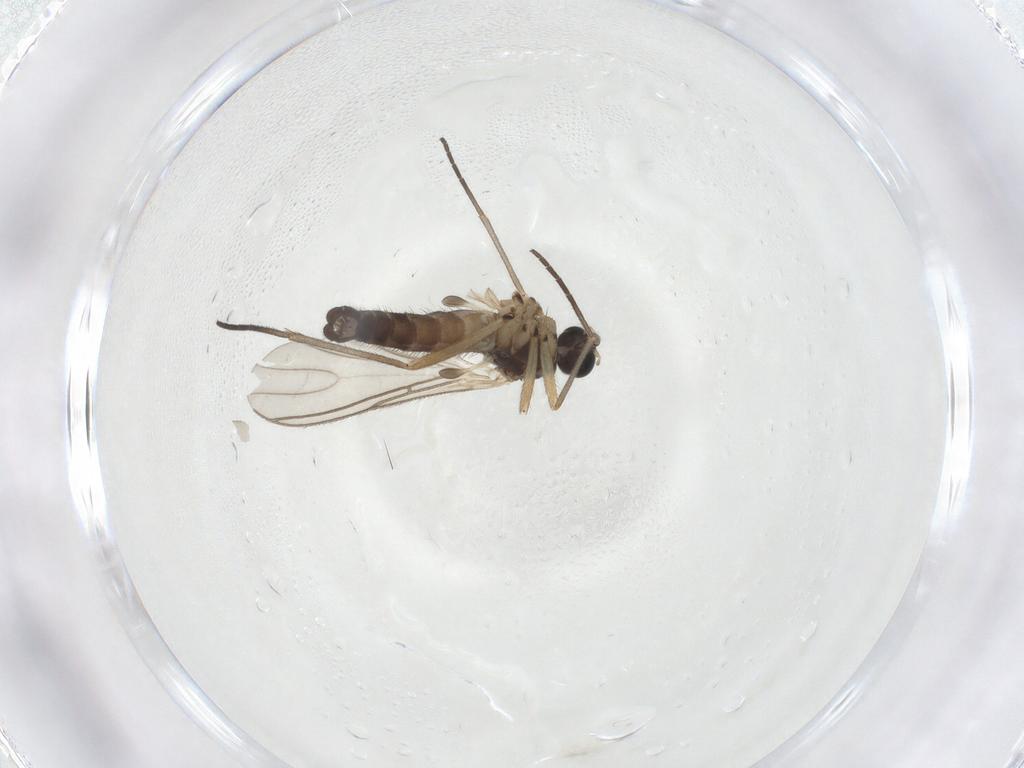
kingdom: Animalia
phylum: Arthropoda
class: Insecta
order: Diptera
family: Sciaridae
